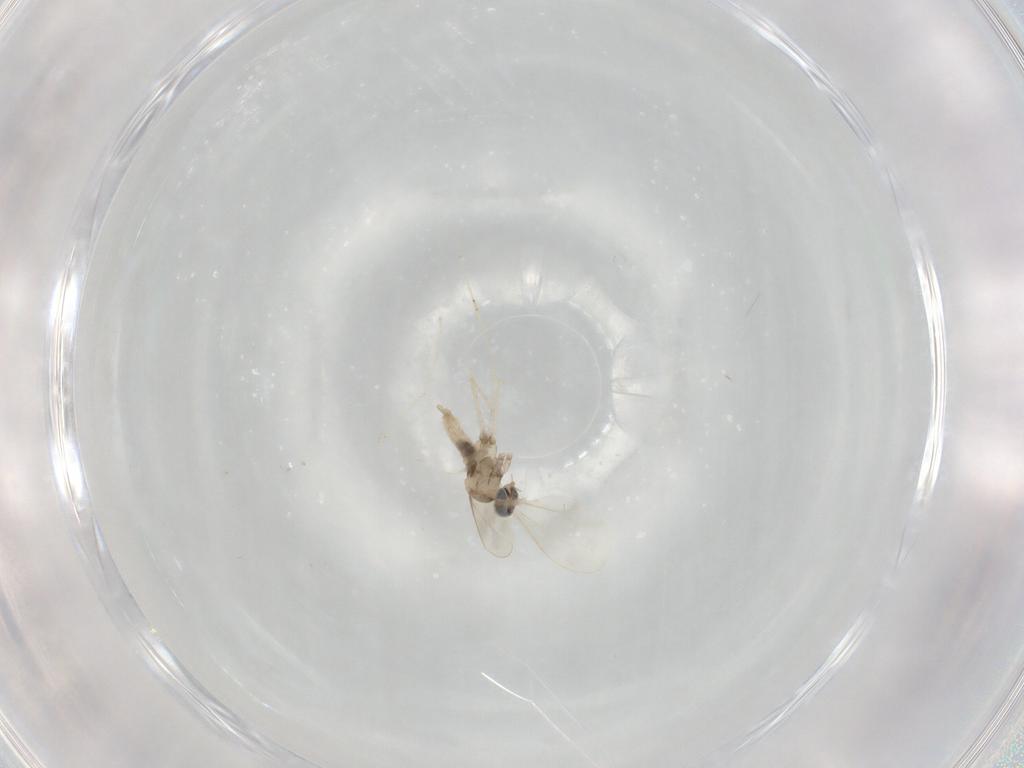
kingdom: Animalia
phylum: Arthropoda
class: Insecta
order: Diptera
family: Cecidomyiidae
